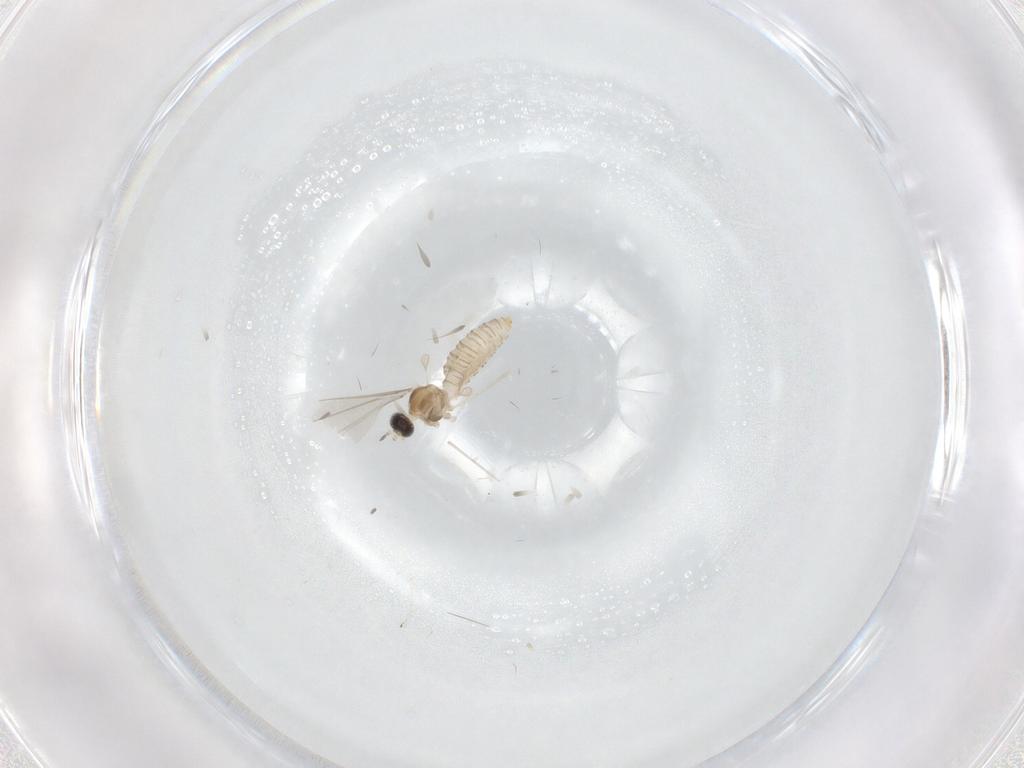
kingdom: Animalia
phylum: Arthropoda
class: Insecta
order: Diptera
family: Cecidomyiidae
